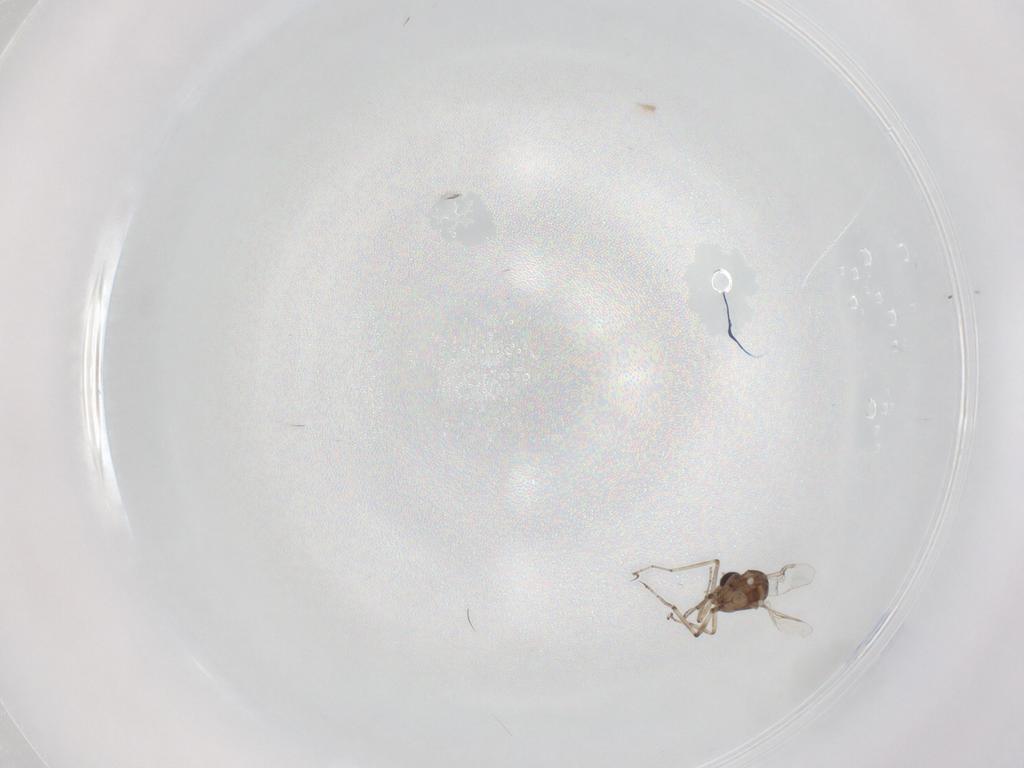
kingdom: Animalia
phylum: Arthropoda
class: Insecta
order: Diptera
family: Ceratopogonidae
